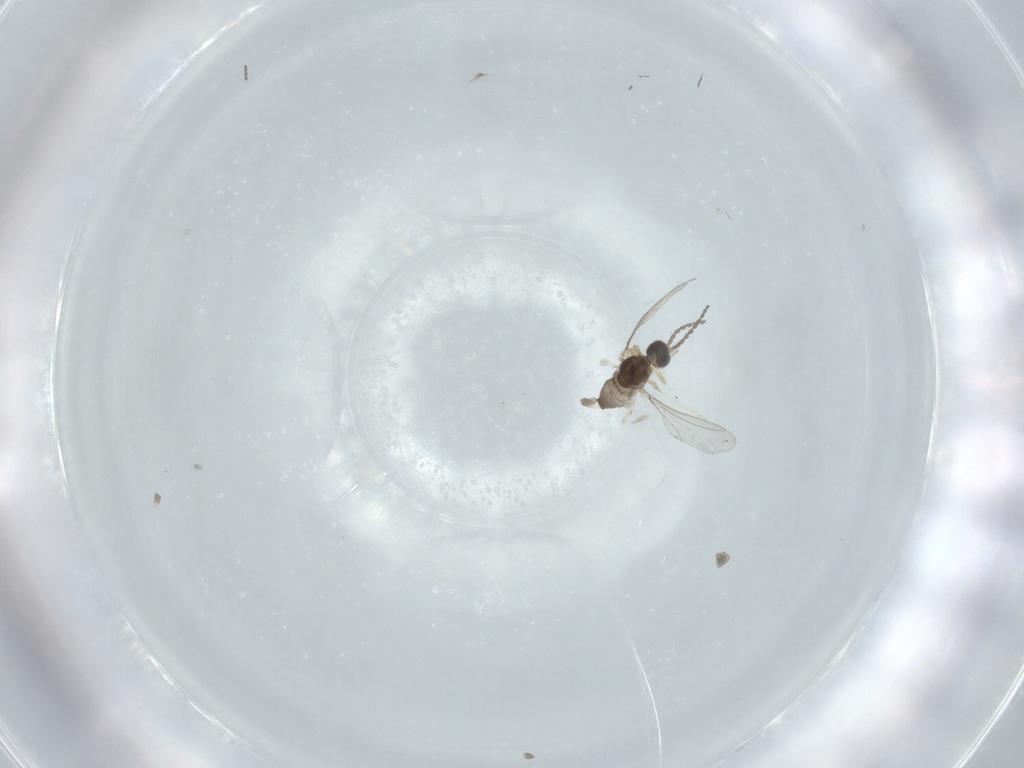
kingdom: Animalia
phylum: Arthropoda
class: Insecta
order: Diptera
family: Cecidomyiidae
